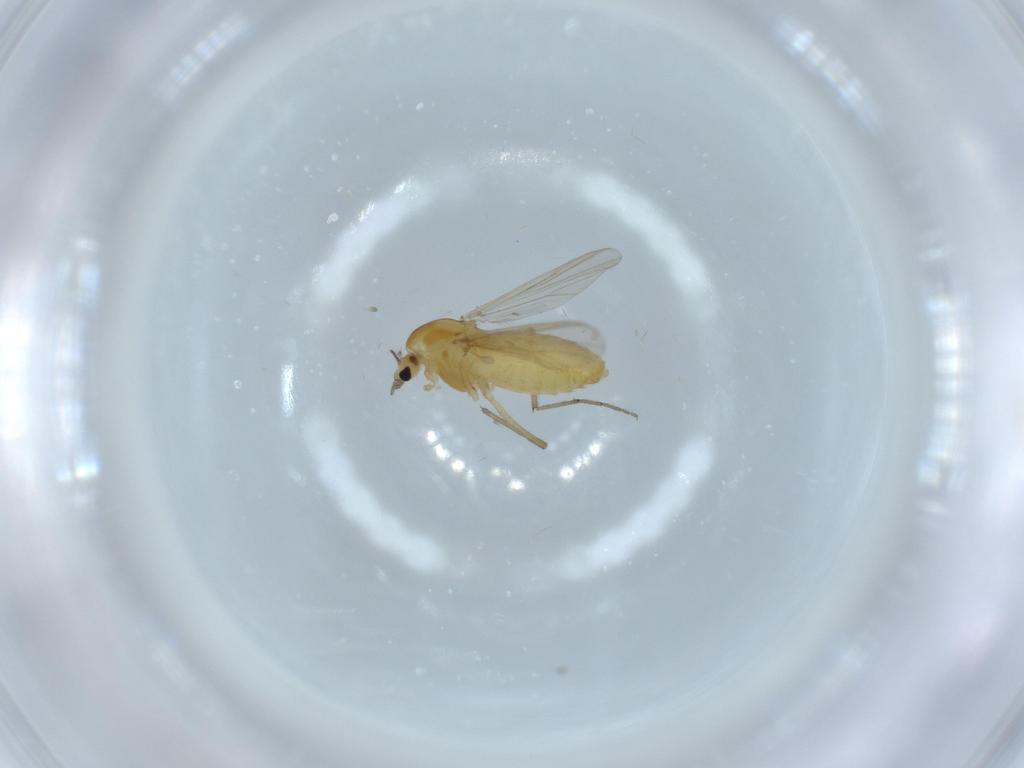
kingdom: Animalia
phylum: Arthropoda
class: Insecta
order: Diptera
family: Chironomidae
